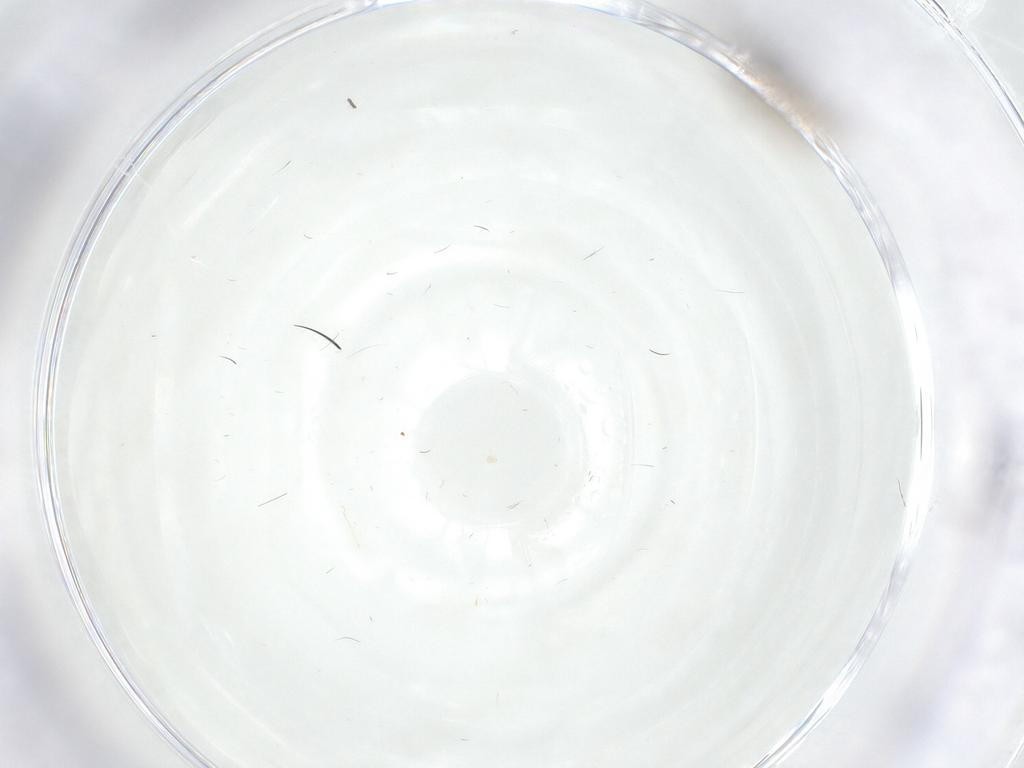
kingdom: Animalia
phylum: Arthropoda
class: Insecta
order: Diptera
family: Cecidomyiidae
